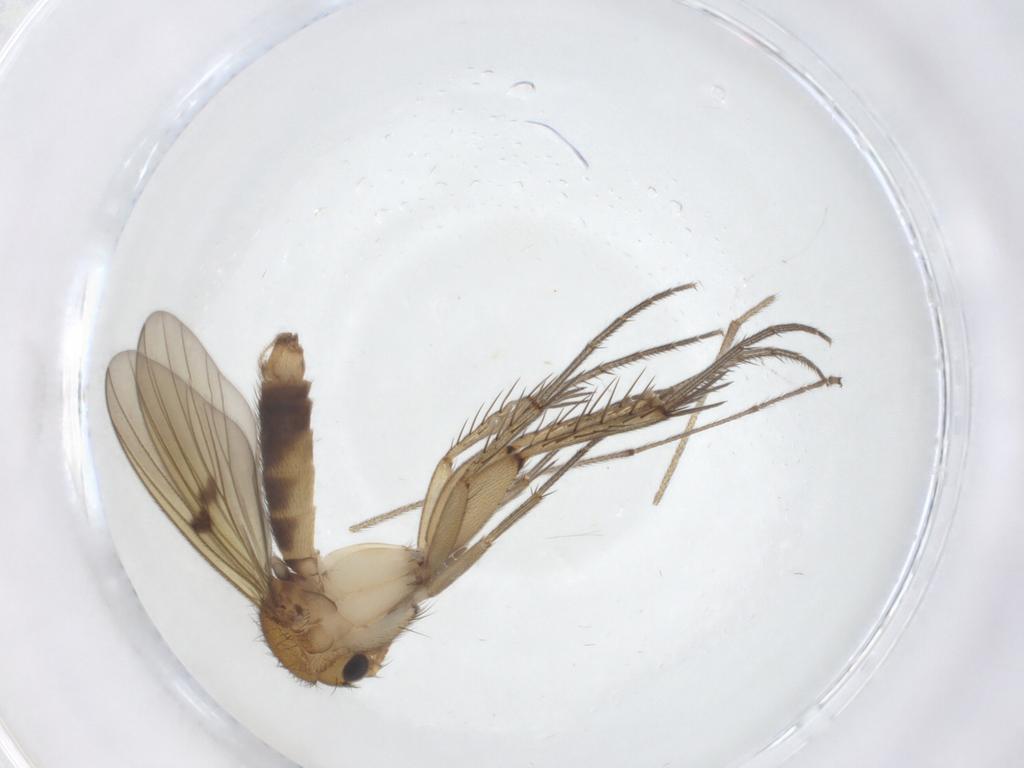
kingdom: Animalia
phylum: Arthropoda
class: Insecta
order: Diptera
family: Mycetophilidae
